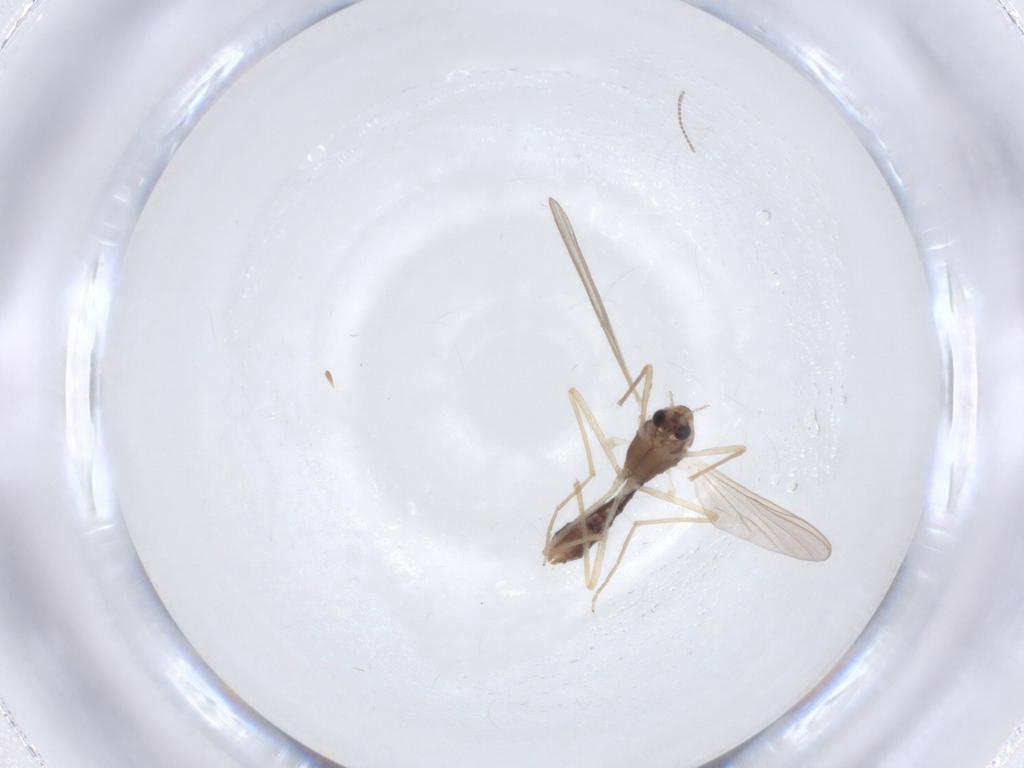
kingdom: Animalia
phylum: Arthropoda
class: Insecta
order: Diptera
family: Chironomidae
